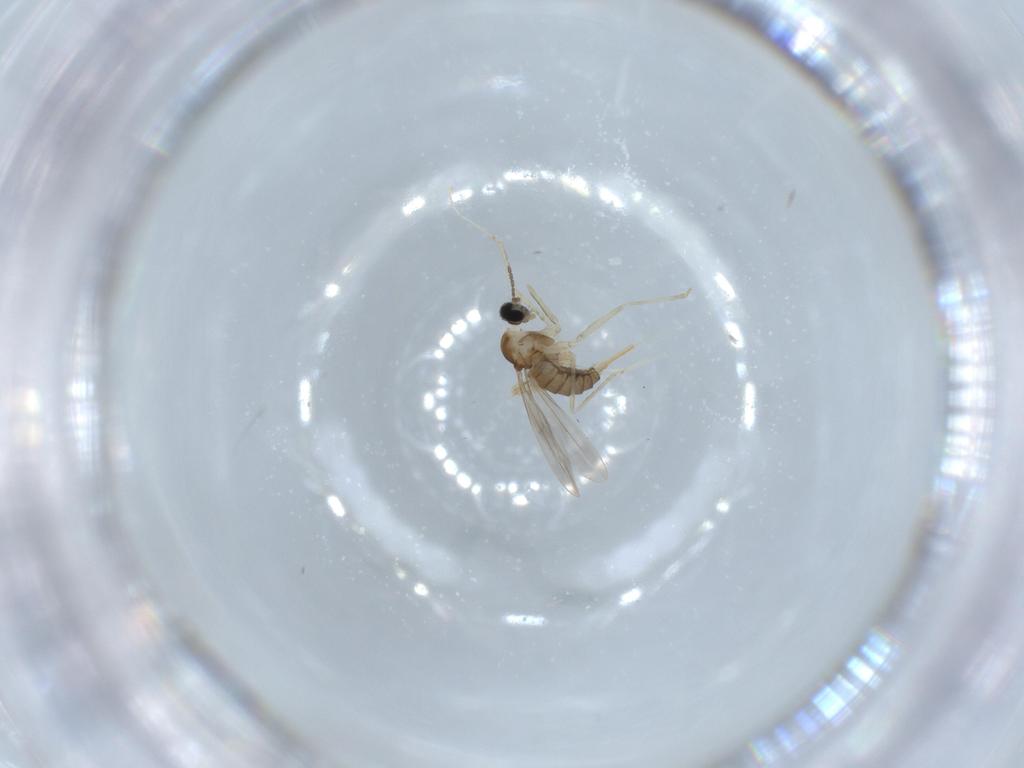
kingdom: Animalia
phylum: Arthropoda
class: Insecta
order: Diptera
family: Cecidomyiidae
